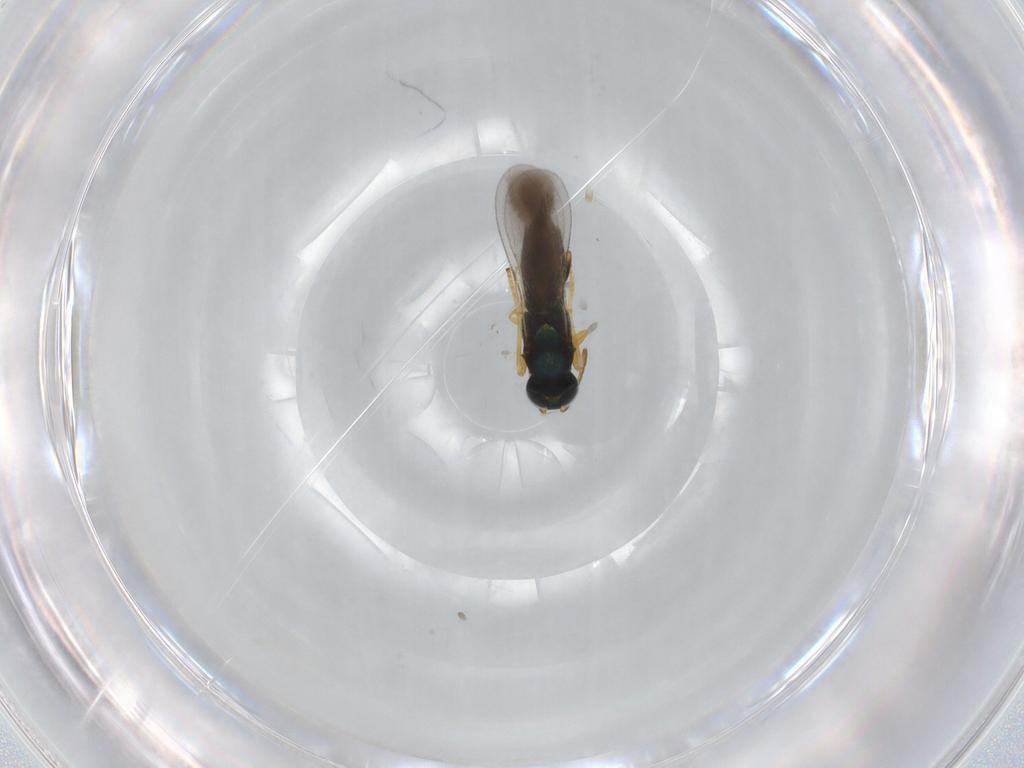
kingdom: Animalia
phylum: Arthropoda
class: Insecta
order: Hymenoptera
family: Encyrtidae
